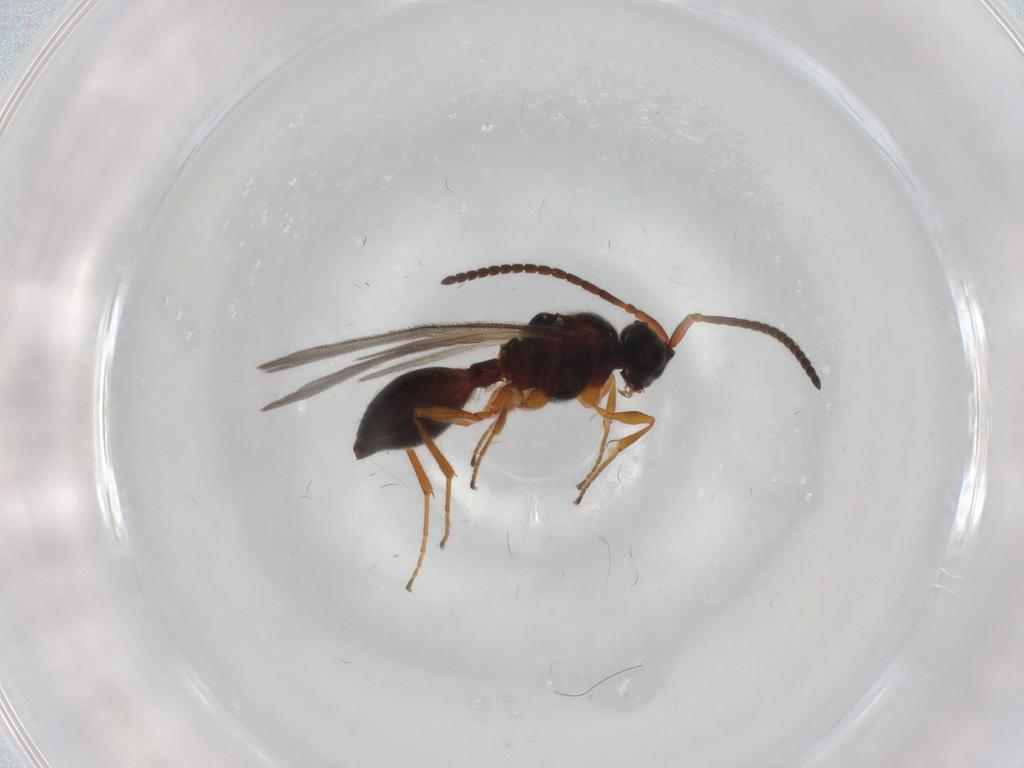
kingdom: Animalia
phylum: Arthropoda
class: Insecta
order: Hymenoptera
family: Diapriidae
